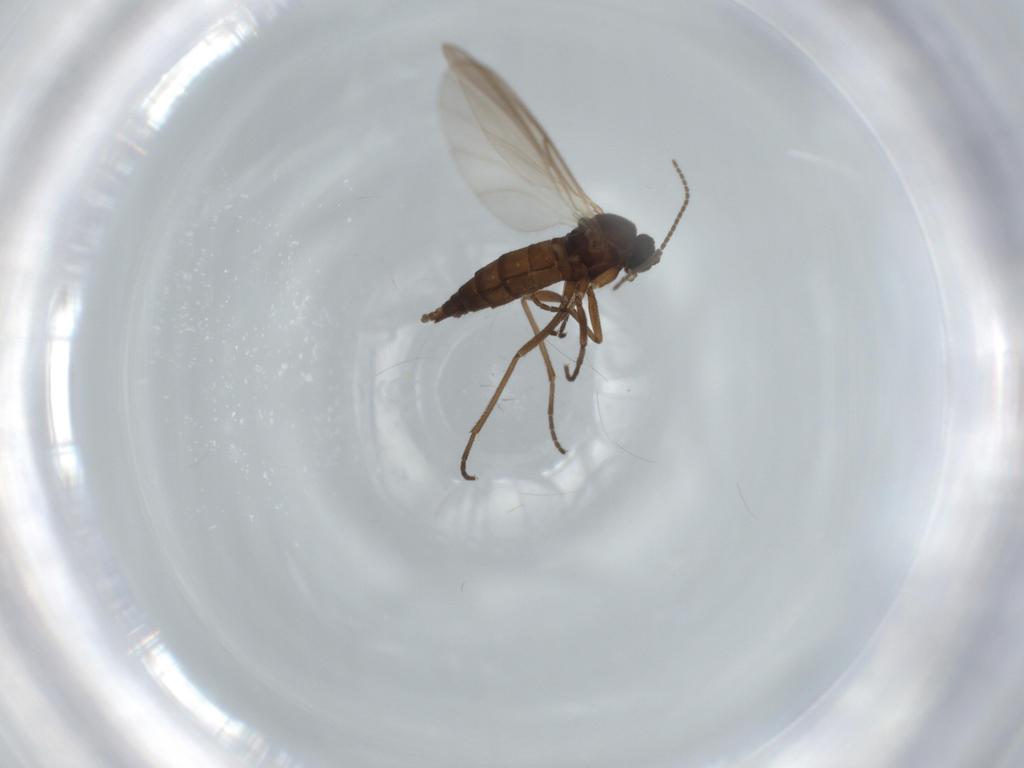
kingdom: Animalia
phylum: Arthropoda
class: Insecta
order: Diptera
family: Sciaridae
